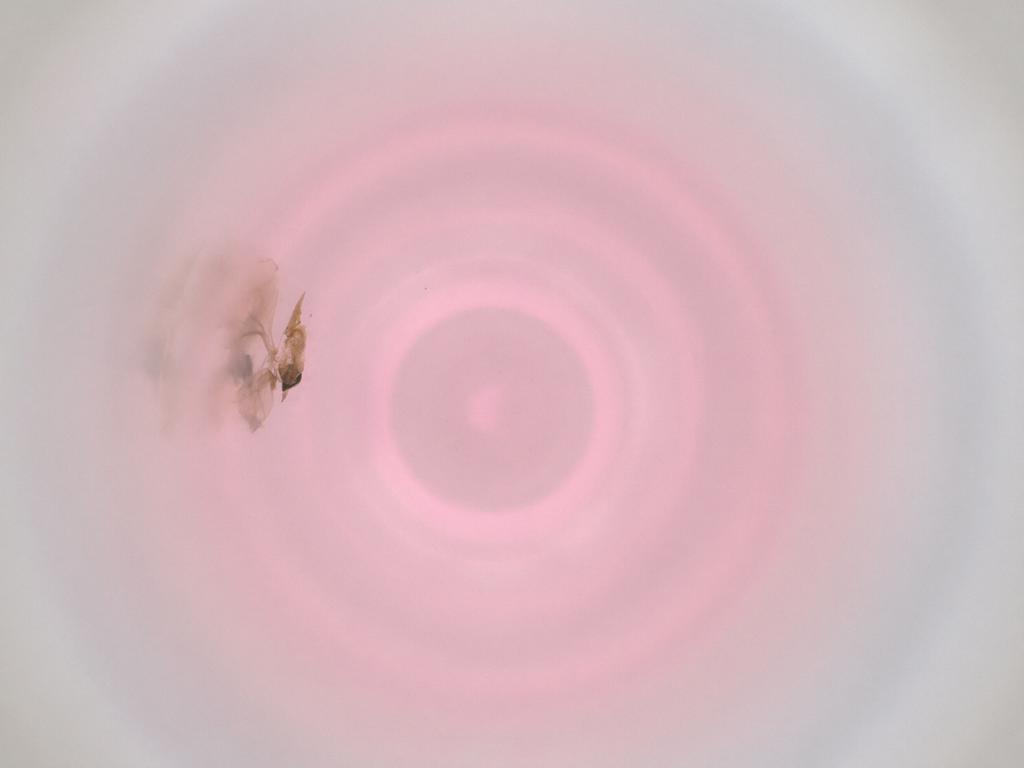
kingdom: Animalia
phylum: Arthropoda
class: Insecta
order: Diptera
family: Cecidomyiidae
